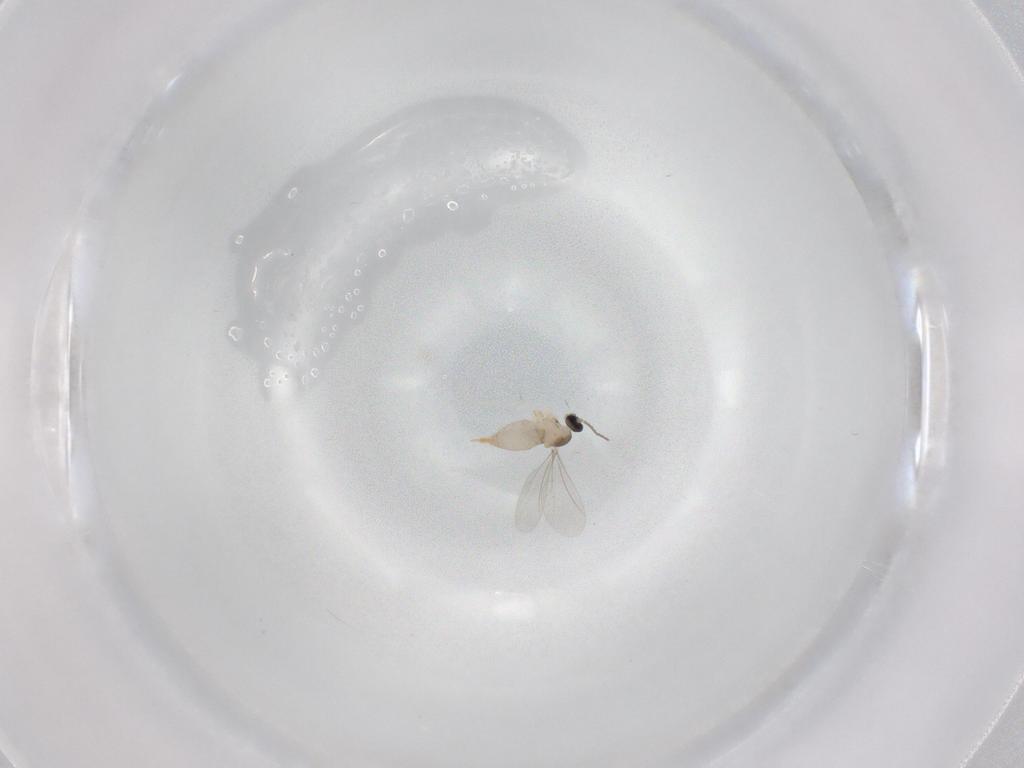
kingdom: Animalia
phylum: Arthropoda
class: Insecta
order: Diptera
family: Cecidomyiidae
